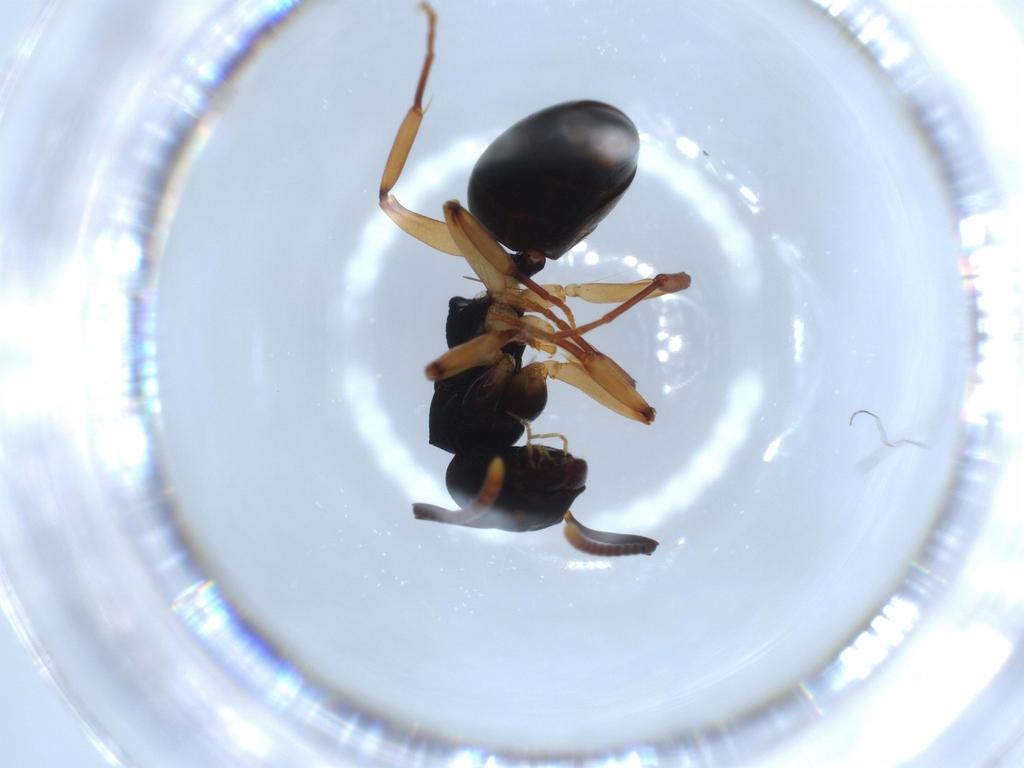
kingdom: Animalia
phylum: Arthropoda
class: Insecta
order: Hymenoptera
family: Formicidae
